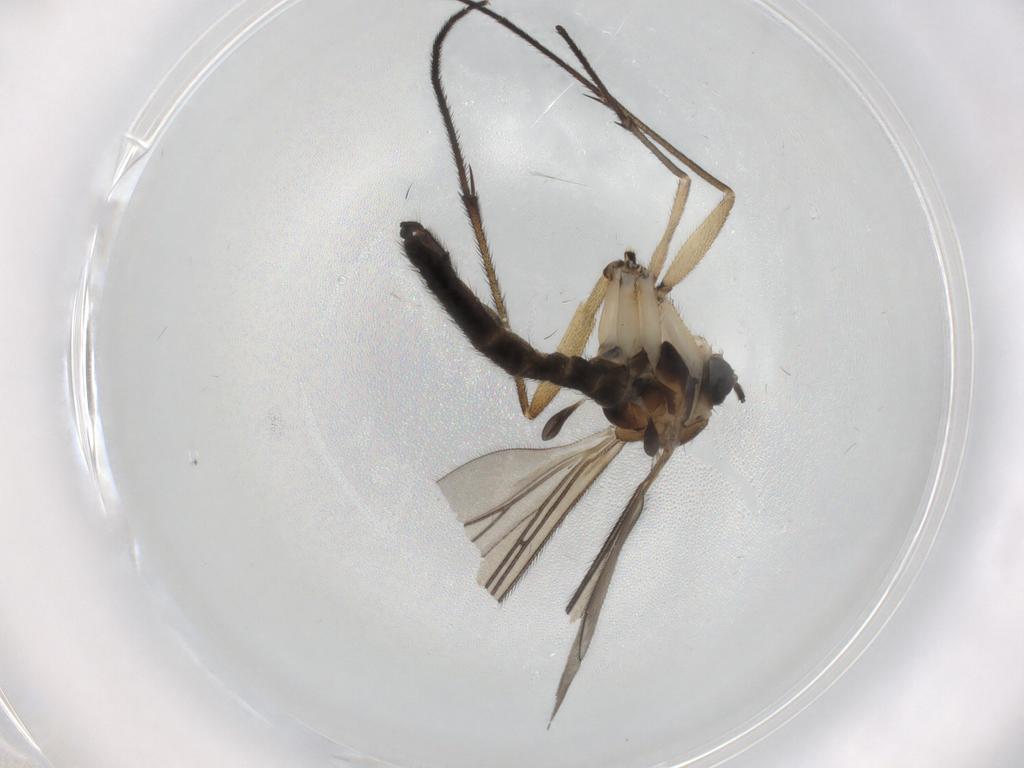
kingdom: Animalia
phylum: Arthropoda
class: Insecta
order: Diptera
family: Sciaridae
